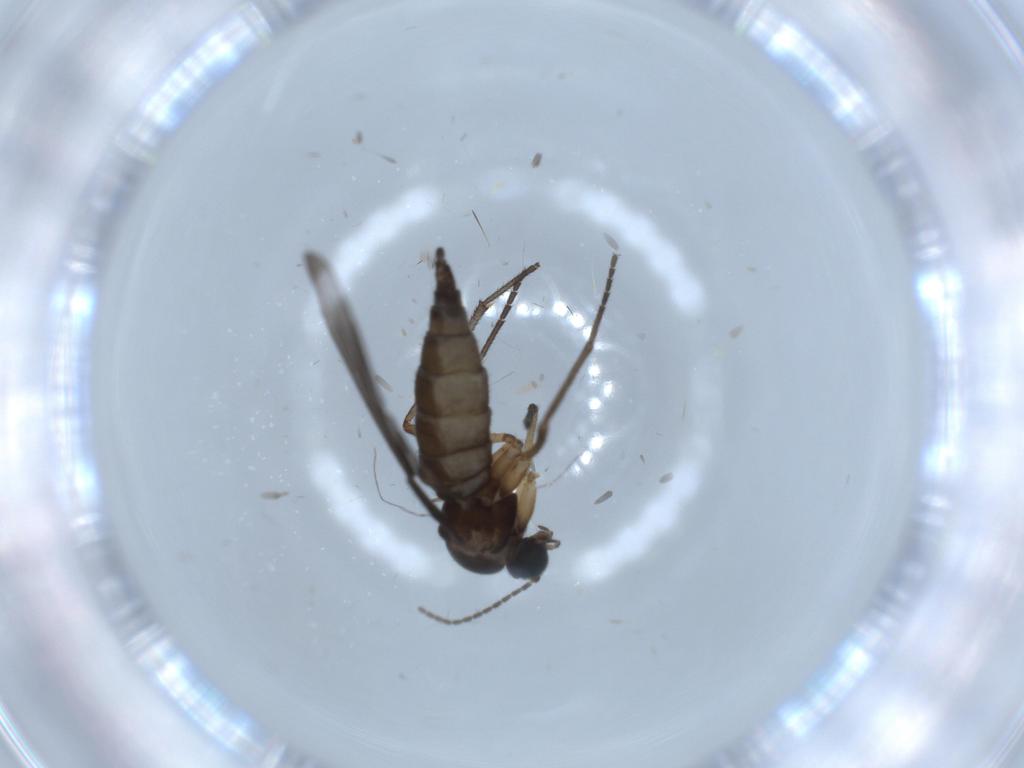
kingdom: Animalia
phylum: Arthropoda
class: Insecta
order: Diptera
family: Sciaridae
